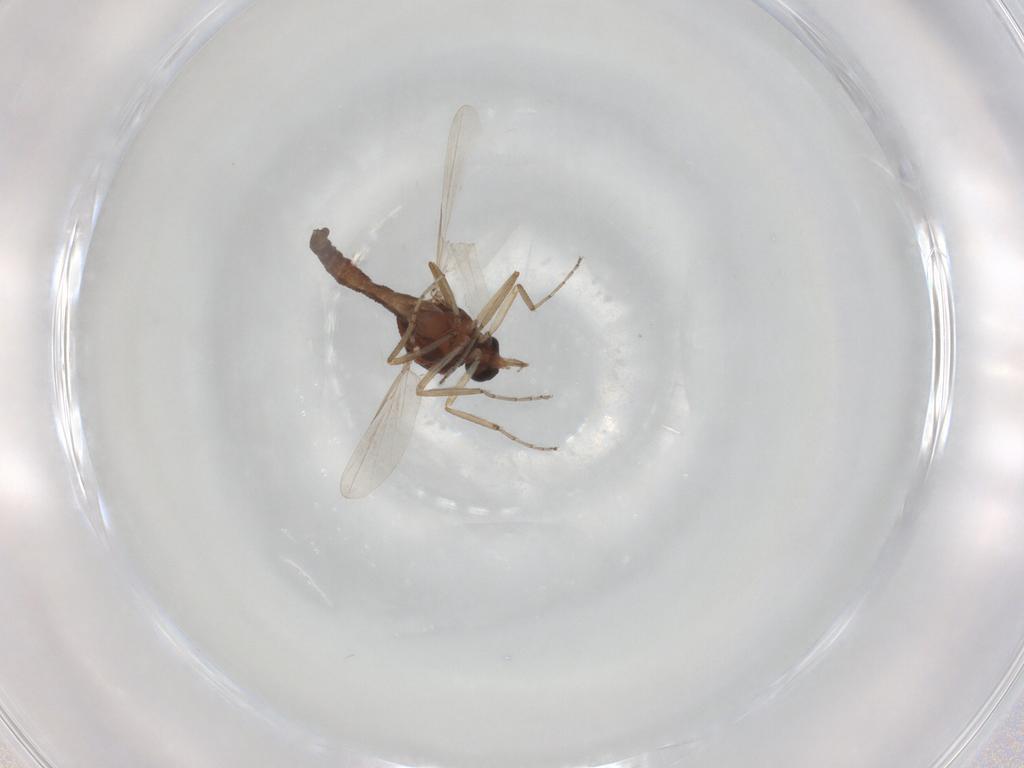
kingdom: Animalia
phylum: Arthropoda
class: Insecta
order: Diptera
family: Ceratopogonidae
